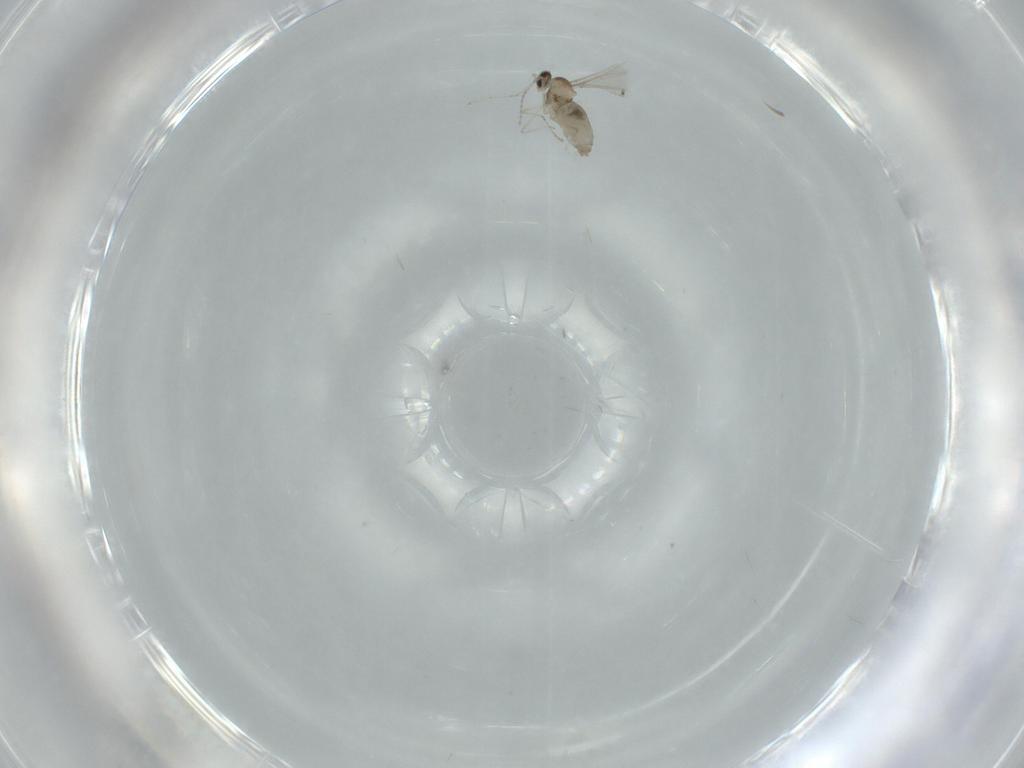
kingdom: Animalia
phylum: Arthropoda
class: Insecta
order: Diptera
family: Cecidomyiidae
